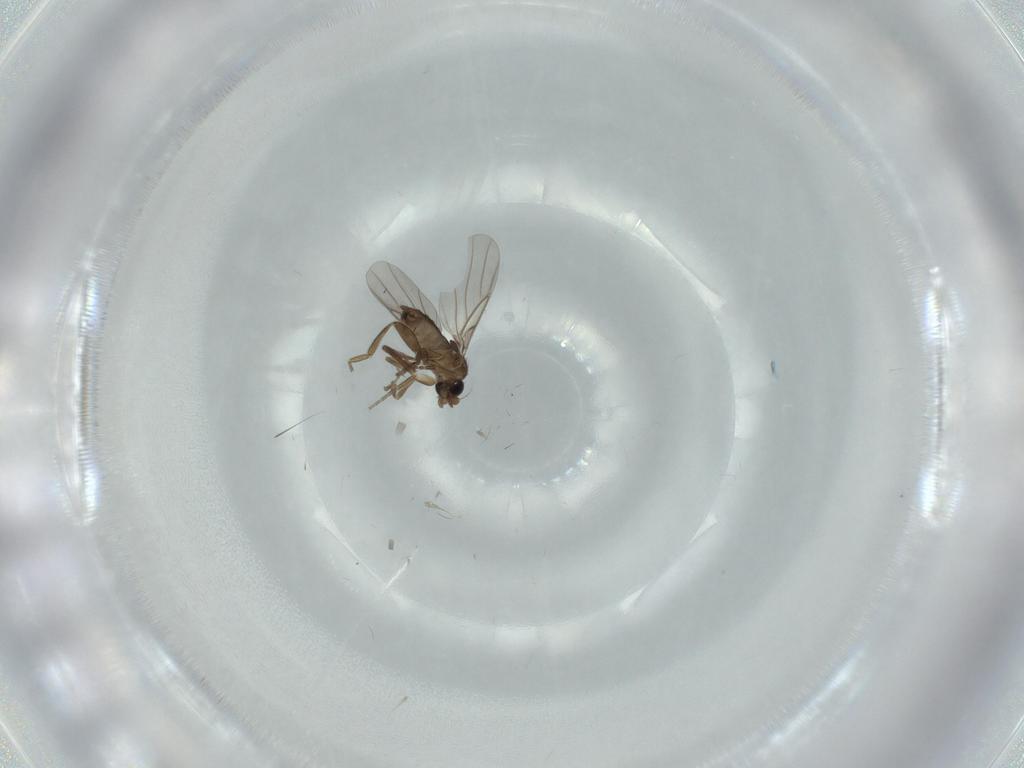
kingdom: Animalia
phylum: Arthropoda
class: Insecta
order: Diptera
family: Phoridae
